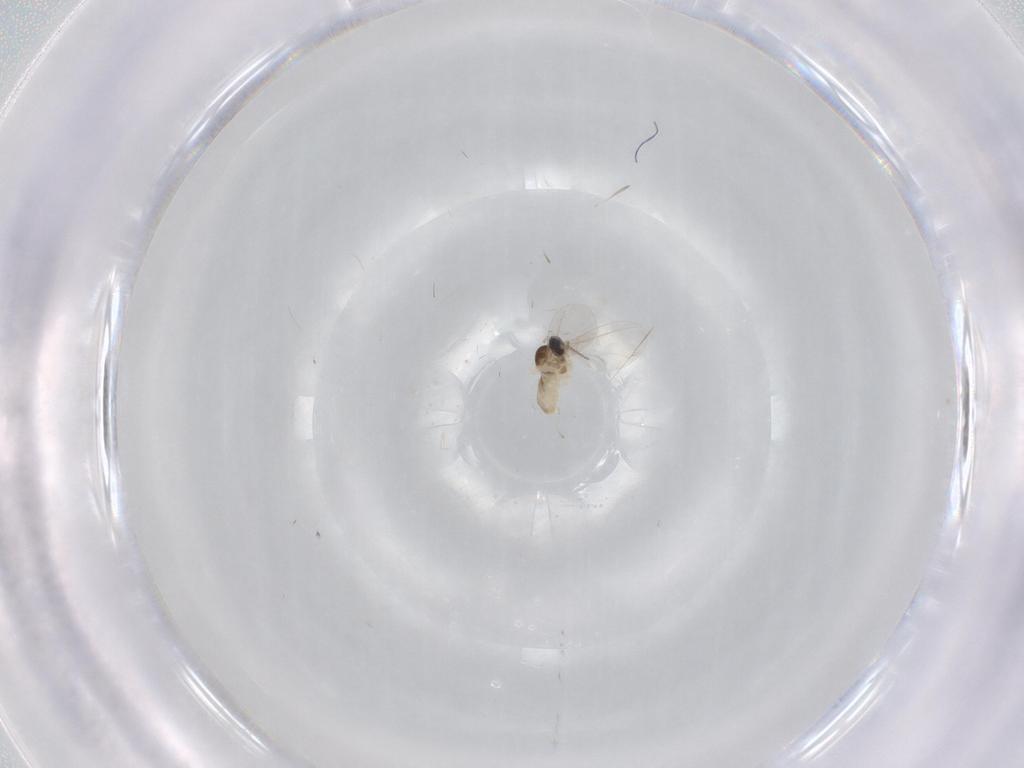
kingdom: Animalia
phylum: Arthropoda
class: Insecta
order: Diptera
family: Cecidomyiidae
